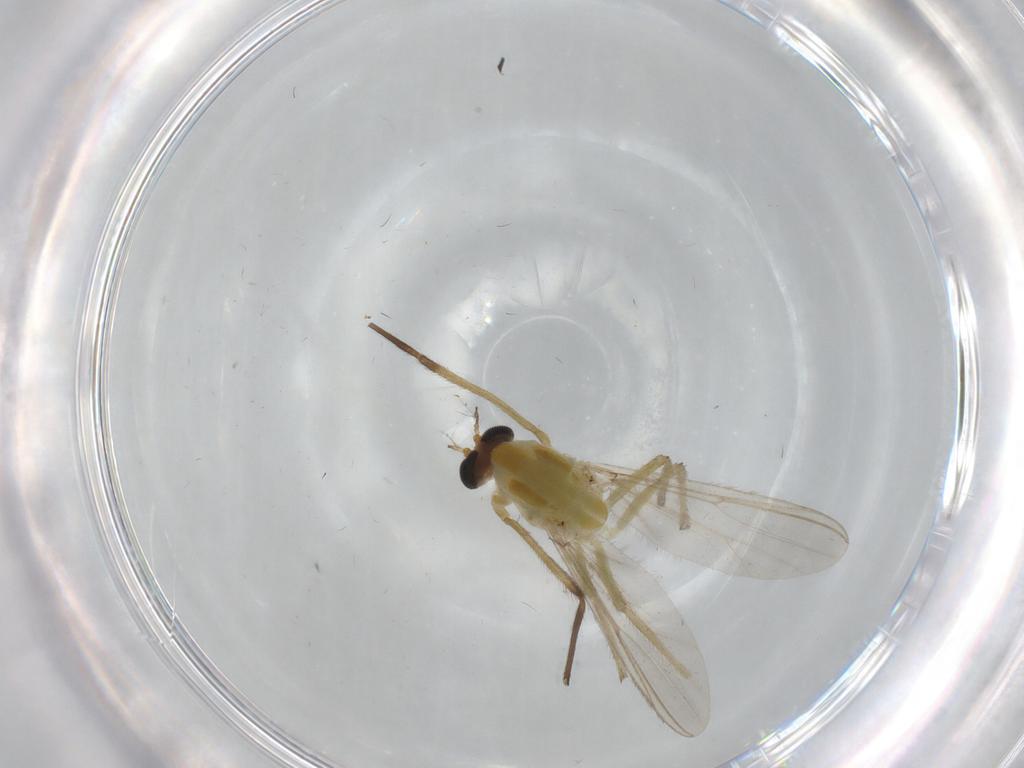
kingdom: Animalia
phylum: Arthropoda
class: Insecta
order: Diptera
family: Chironomidae
